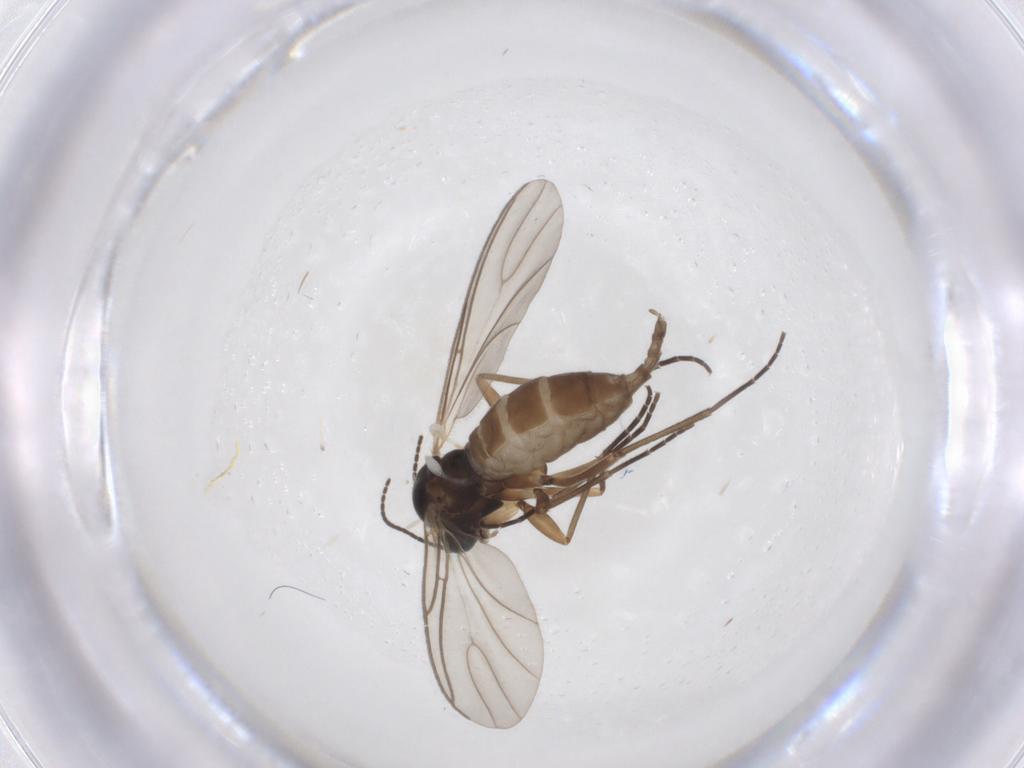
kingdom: Animalia
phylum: Arthropoda
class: Insecta
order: Diptera
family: Sciaridae
